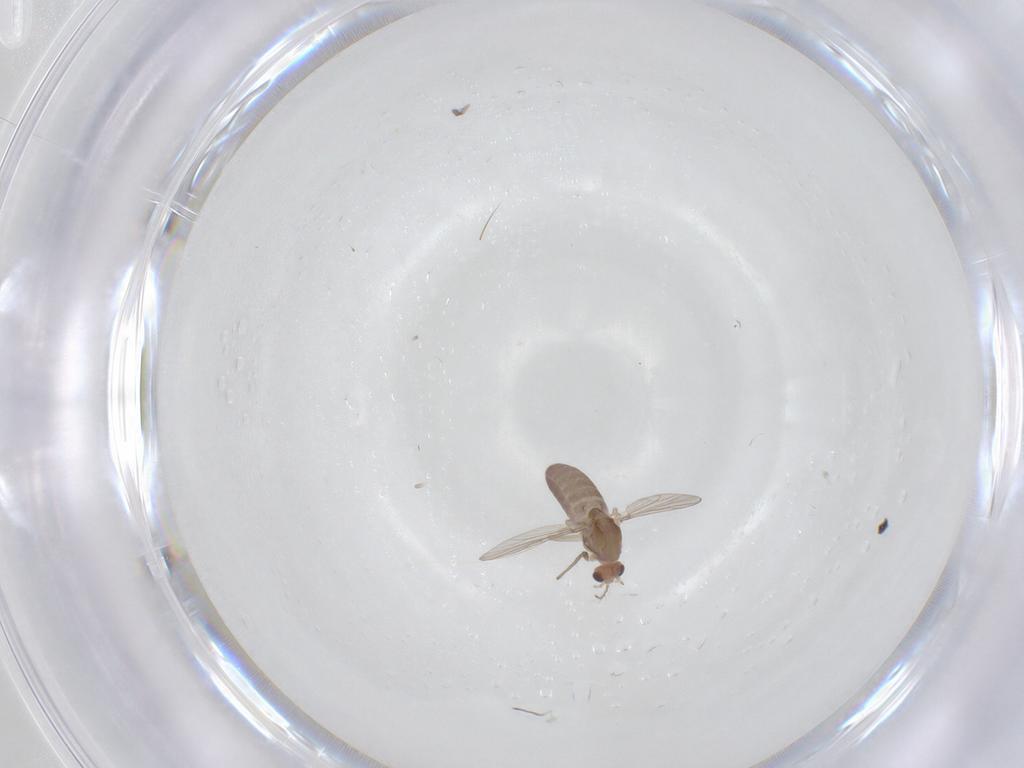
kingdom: Animalia
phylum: Arthropoda
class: Insecta
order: Diptera
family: Chironomidae
